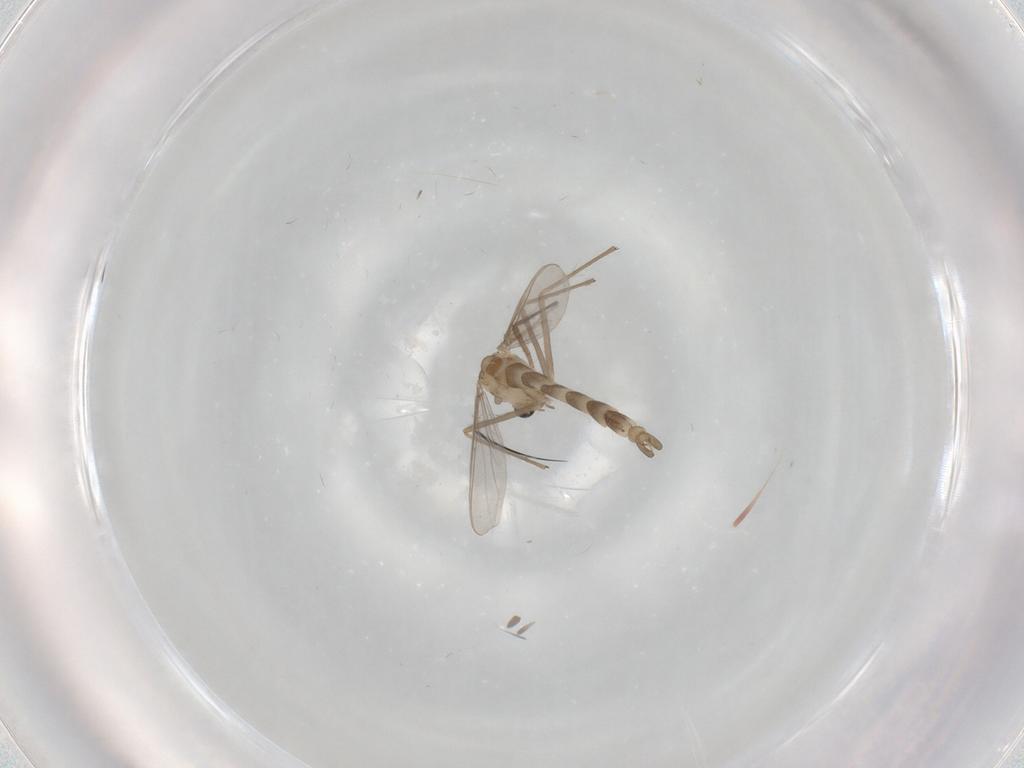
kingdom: Animalia
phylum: Arthropoda
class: Insecta
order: Diptera
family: Chironomidae
